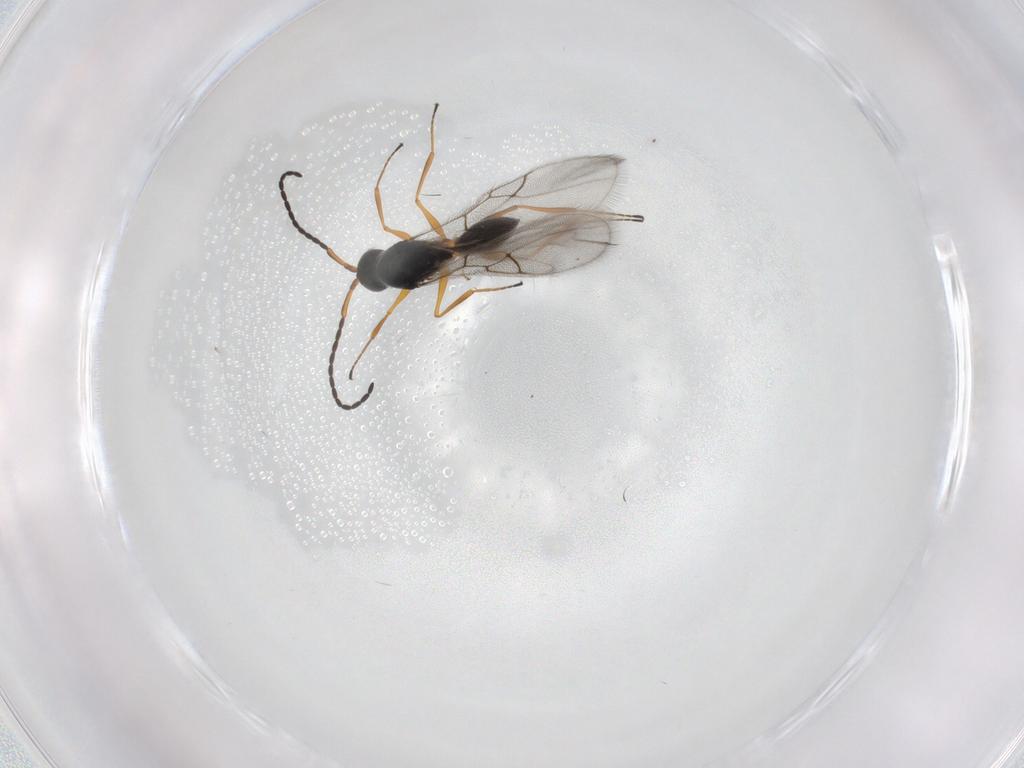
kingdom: Animalia
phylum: Arthropoda
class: Insecta
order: Hymenoptera
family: Figitidae
